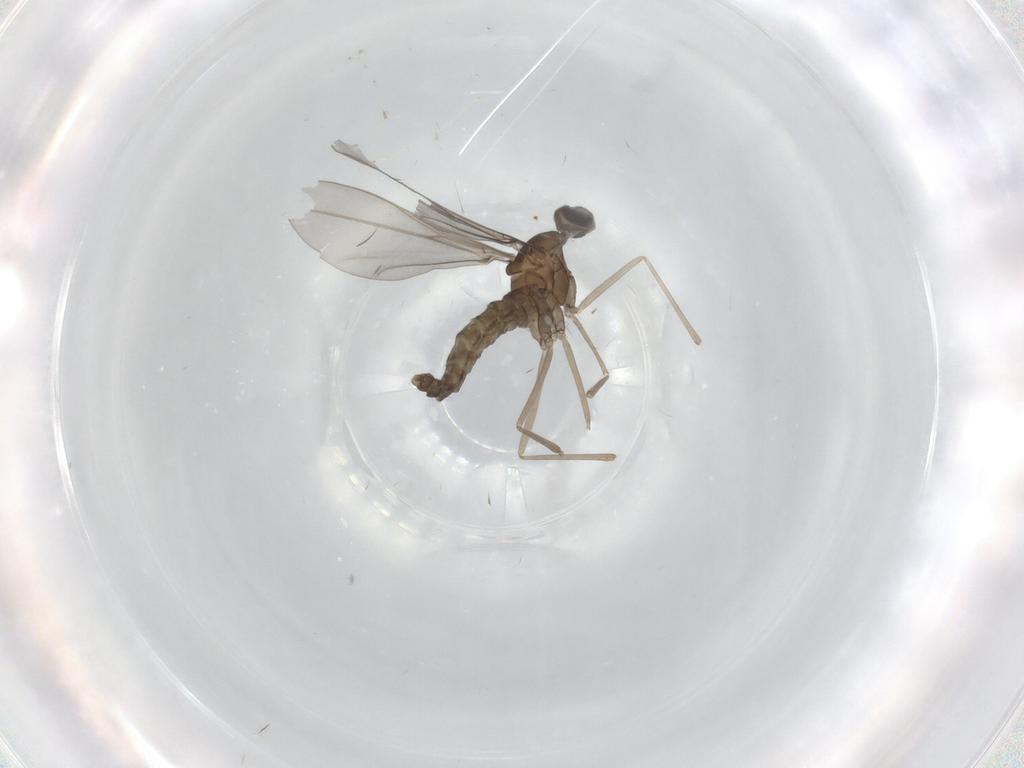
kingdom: Animalia
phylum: Arthropoda
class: Insecta
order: Diptera
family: Cecidomyiidae
